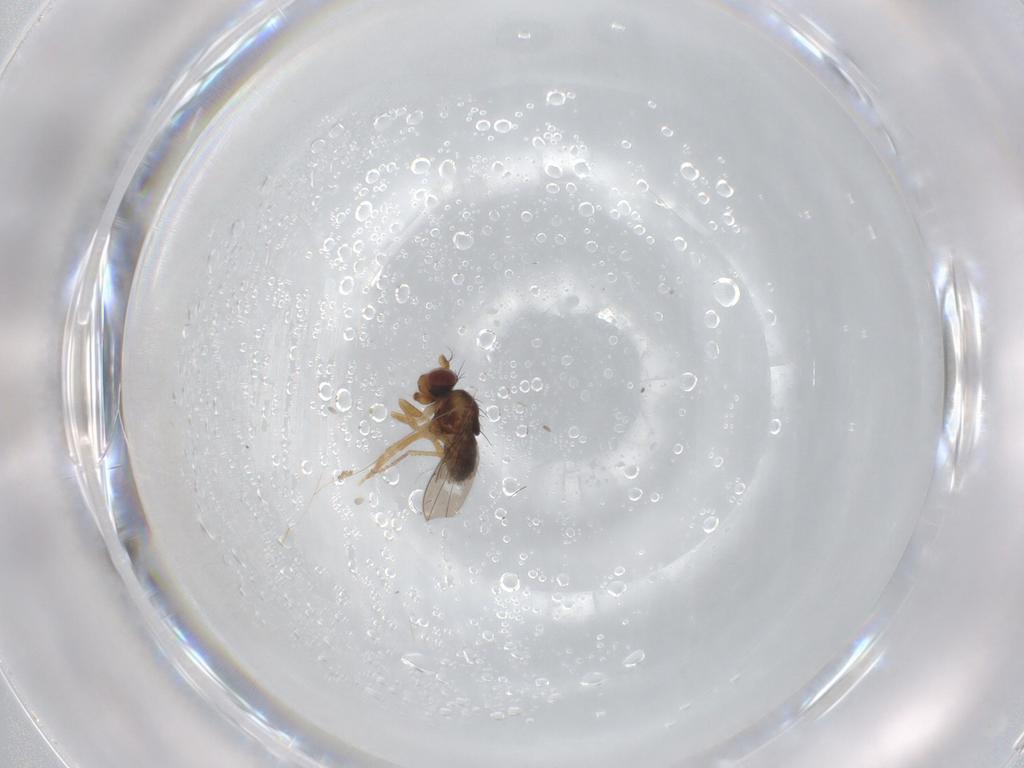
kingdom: Animalia
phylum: Arthropoda
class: Insecta
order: Diptera
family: Ephydridae
